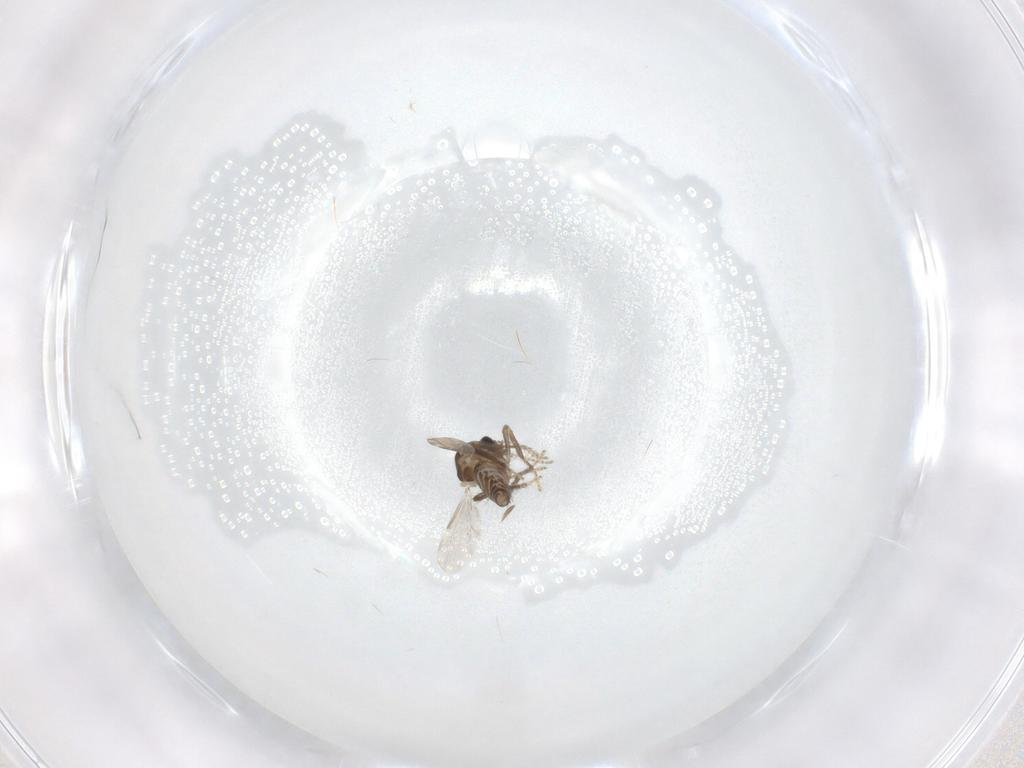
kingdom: Animalia
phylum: Arthropoda
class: Insecta
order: Diptera
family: Ceratopogonidae
